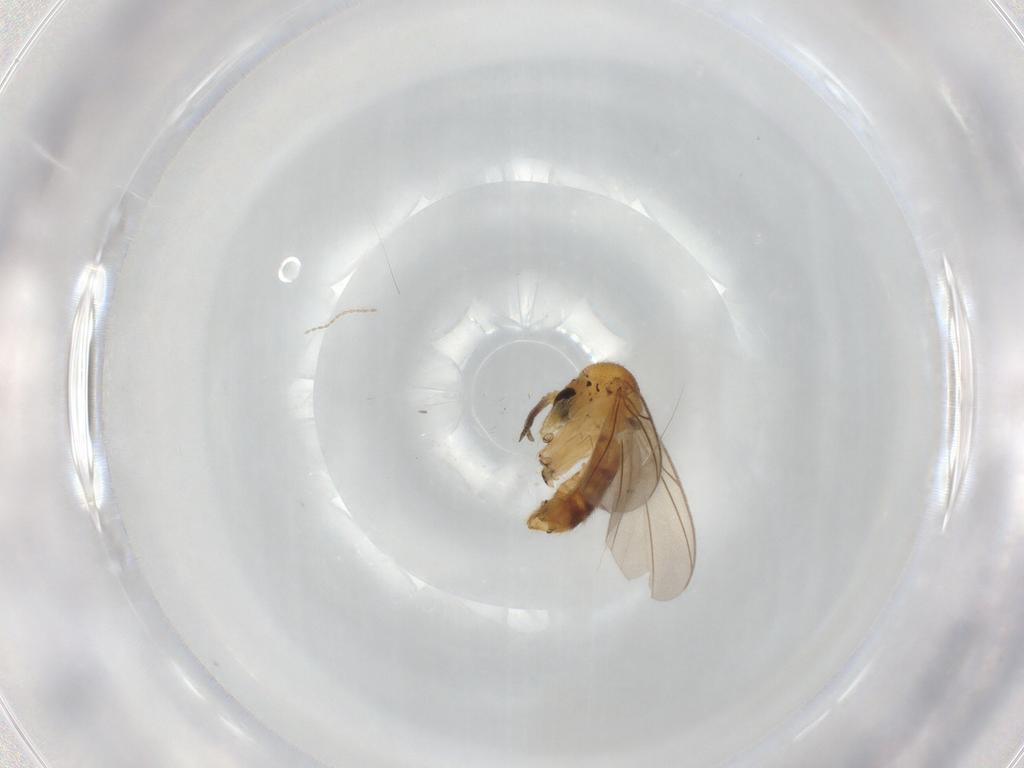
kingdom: Animalia
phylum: Arthropoda
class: Insecta
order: Diptera
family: Mycetophilidae
